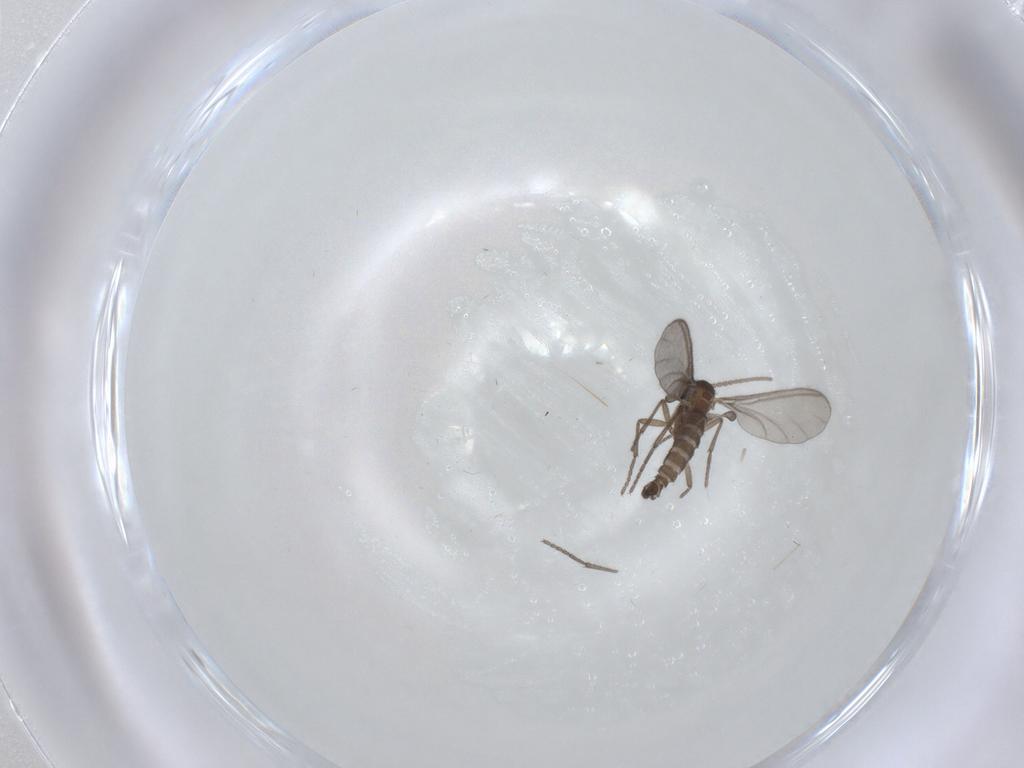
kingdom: Animalia
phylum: Arthropoda
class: Insecta
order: Diptera
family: Sciaridae
